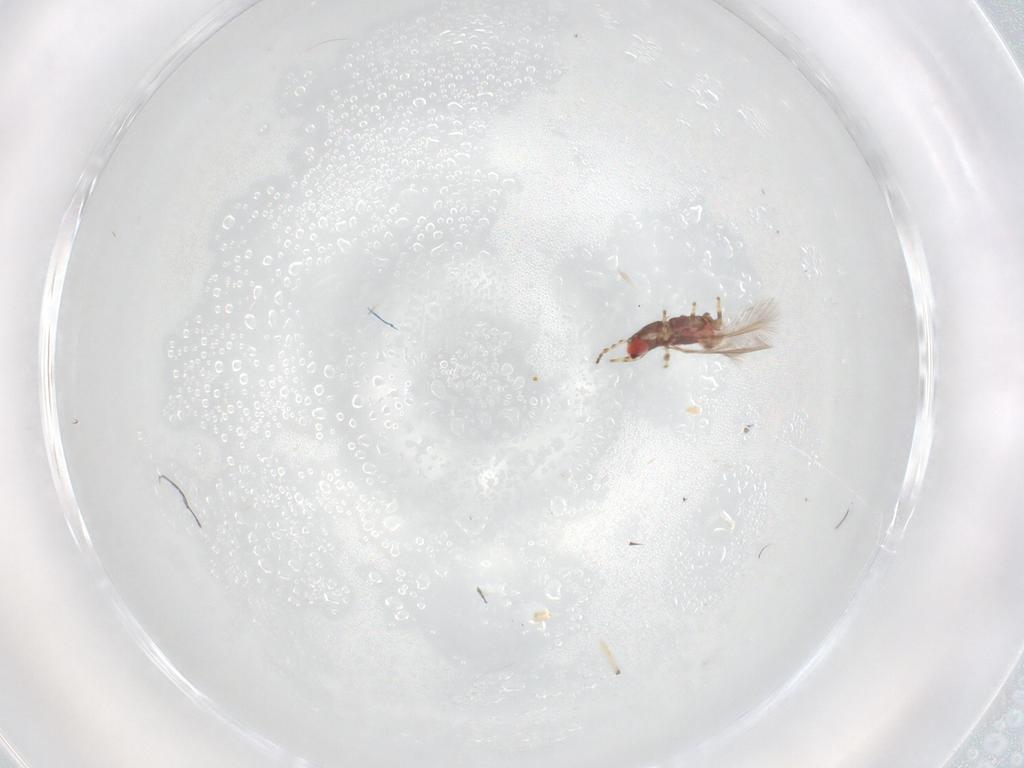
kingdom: Animalia
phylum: Arthropoda
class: Insecta
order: Thysanoptera
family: Phlaeothripidae
